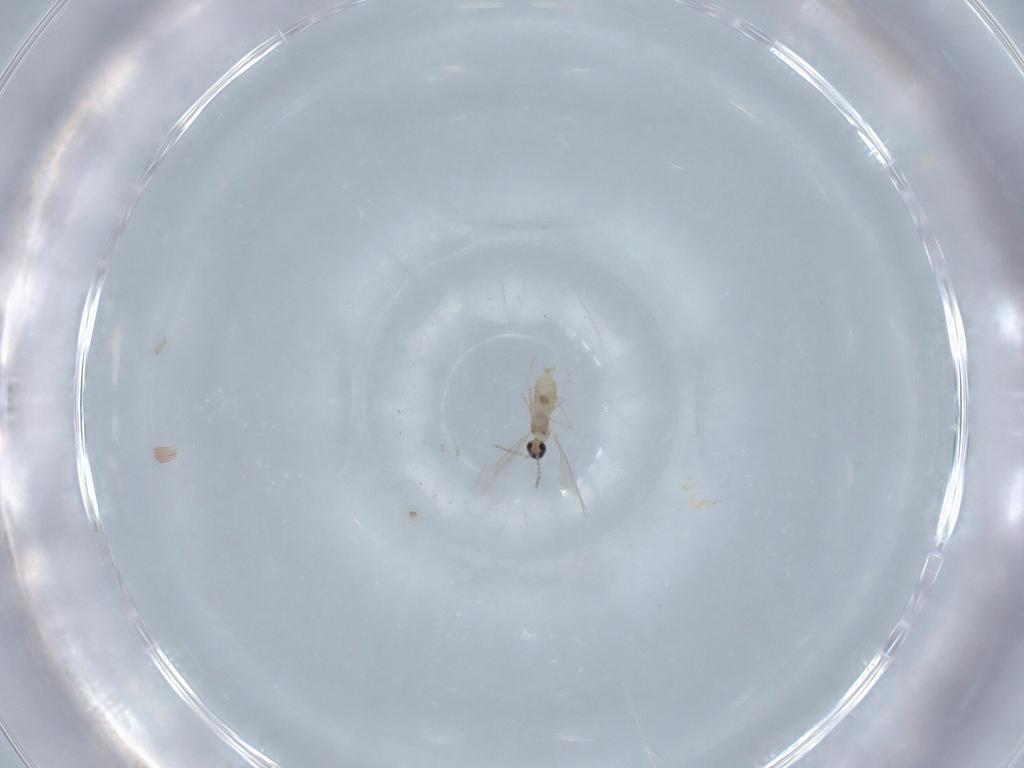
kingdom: Animalia
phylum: Arthropoda
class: Insecta
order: Diptera
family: Cecidomyiidae
